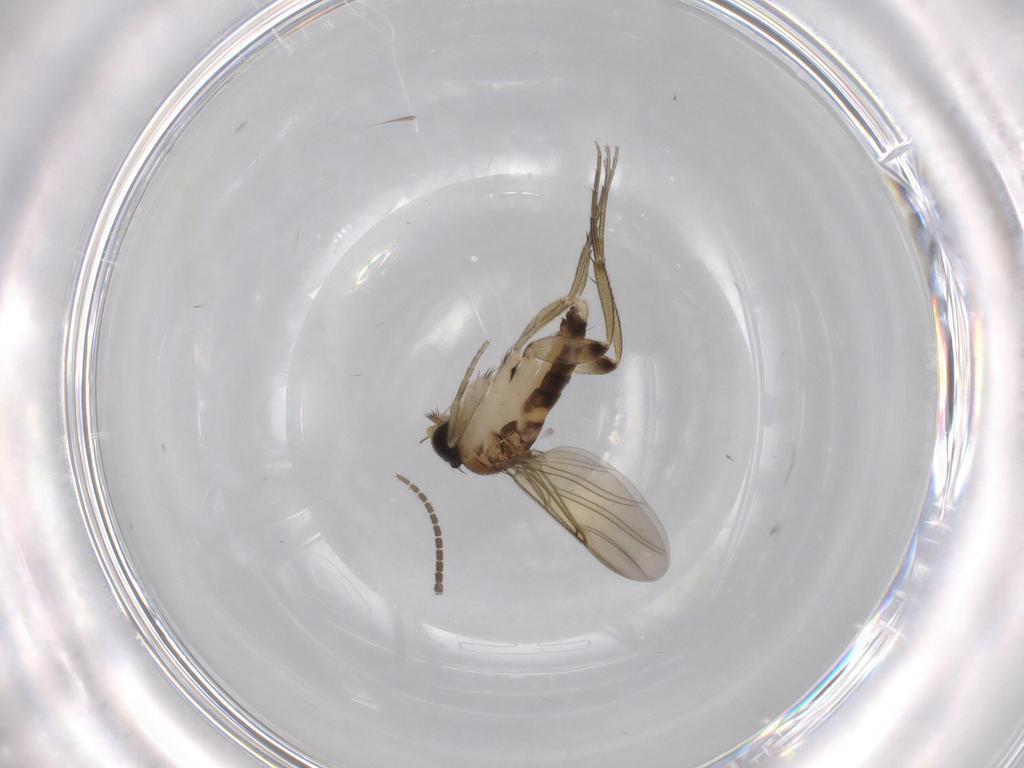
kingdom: Animalia
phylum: Arthropoda
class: Insecta
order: Diptera
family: Phoridae
